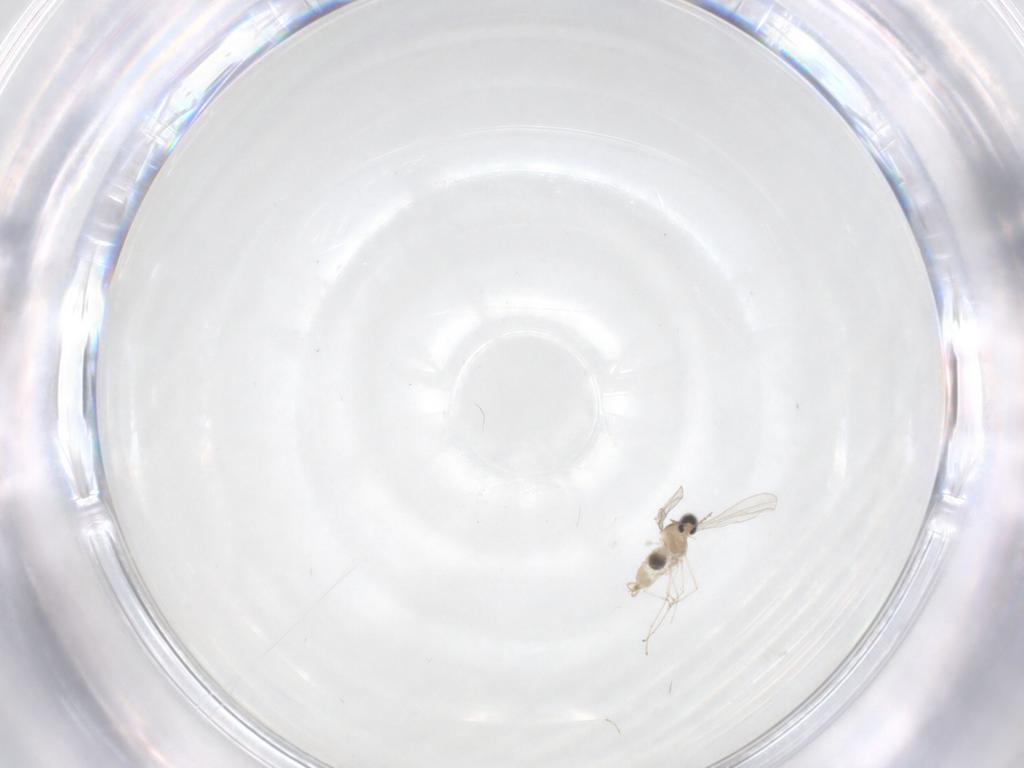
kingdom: Animalia
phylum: Arthropoda
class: Insecta
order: Diptera
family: Cecidomyiidae
